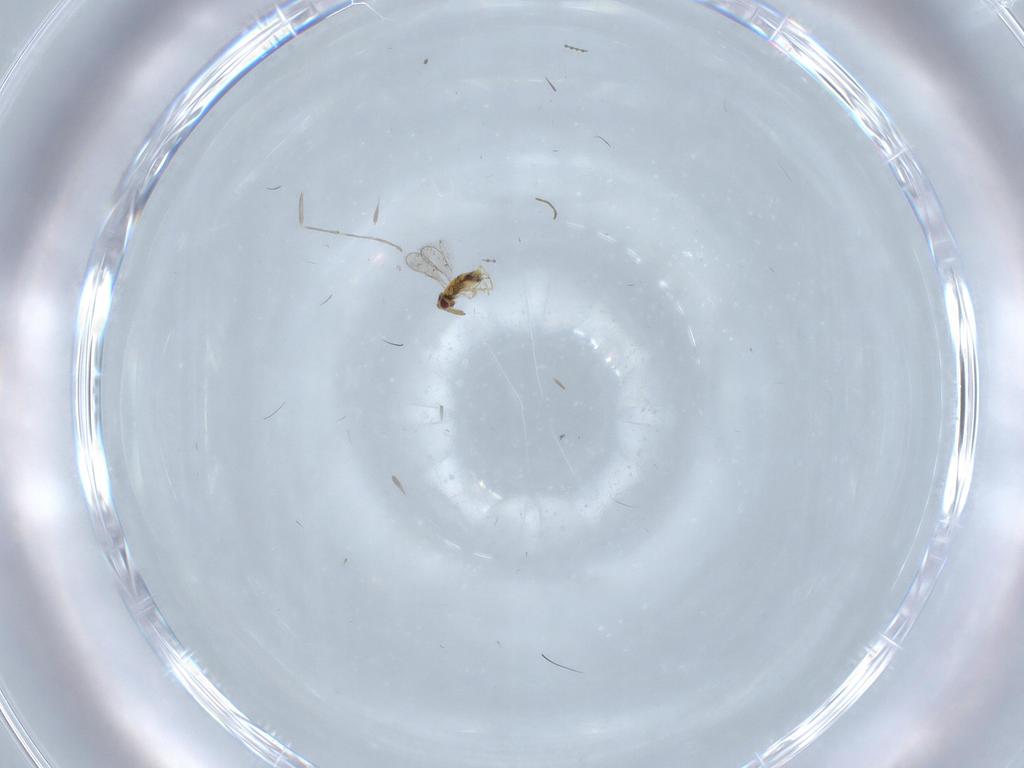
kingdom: Animalia
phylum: Arthropoda
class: Insecta
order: Hymenoptera
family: Aphelinidae
